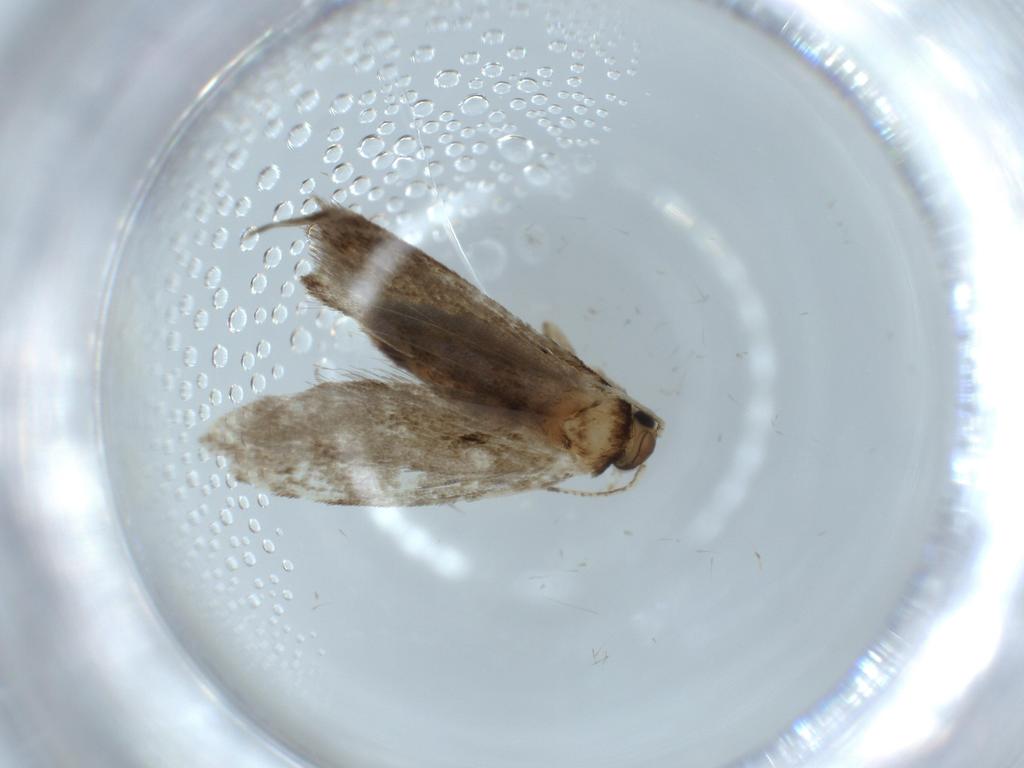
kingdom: Animalia
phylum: Arthropoda
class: Insecta
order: Lepidoptera
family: Tineidae
